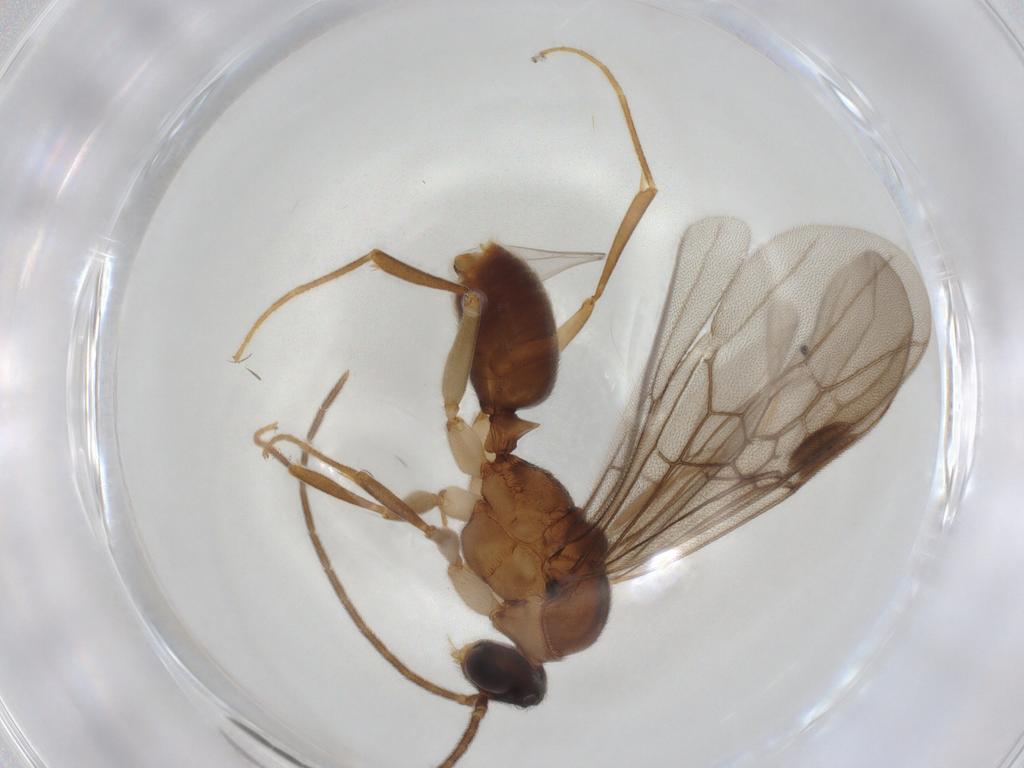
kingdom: Animalia
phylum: Arthropoda
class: Insecta
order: Hymenoptera
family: Formicidae
